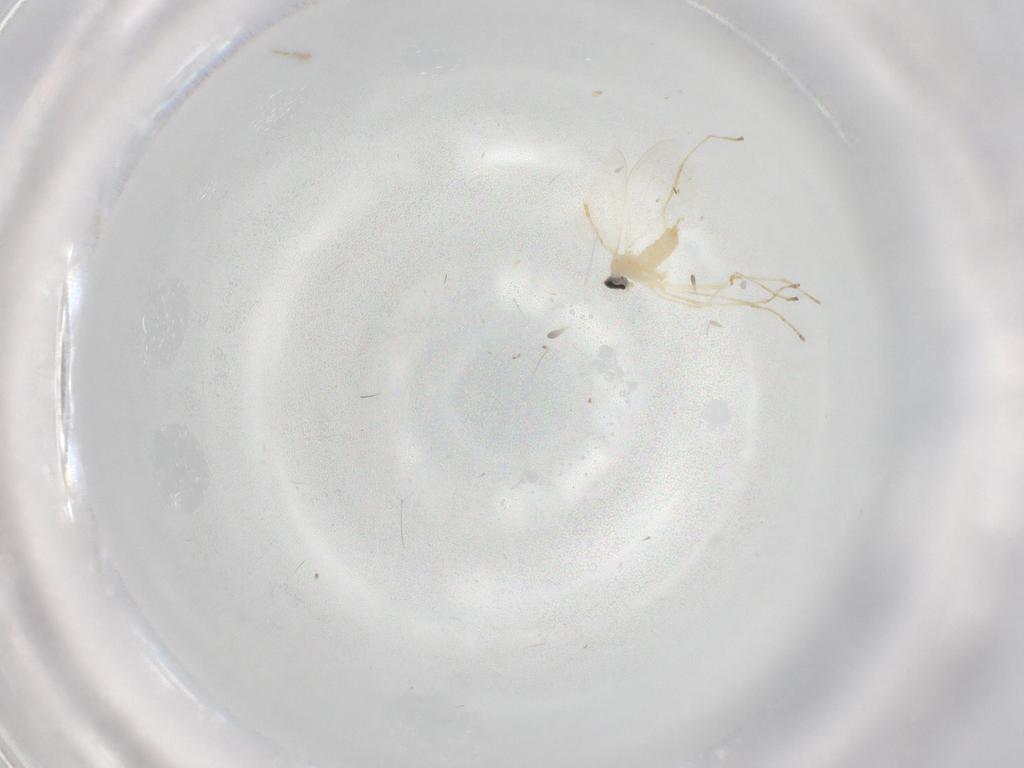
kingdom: Animalia
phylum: Arthropoda
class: Insecta
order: Diptera
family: Cecidomyiidae
